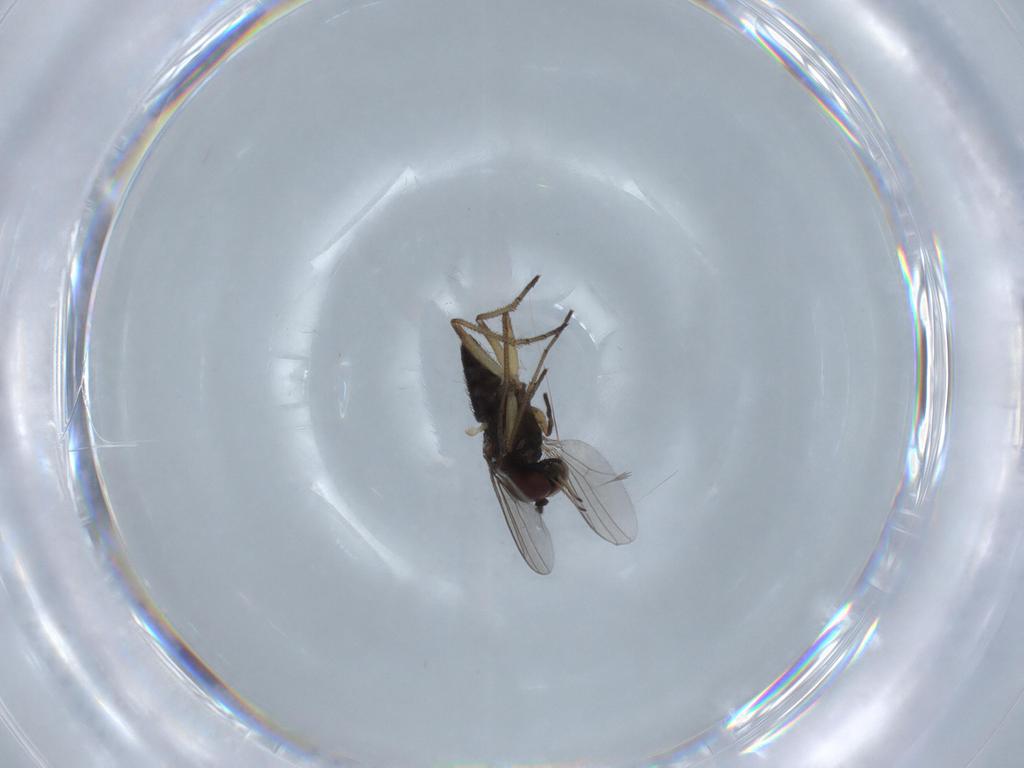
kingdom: Animalia
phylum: Arthropoda
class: Insecta
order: Diptera
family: Dolichopodidae
